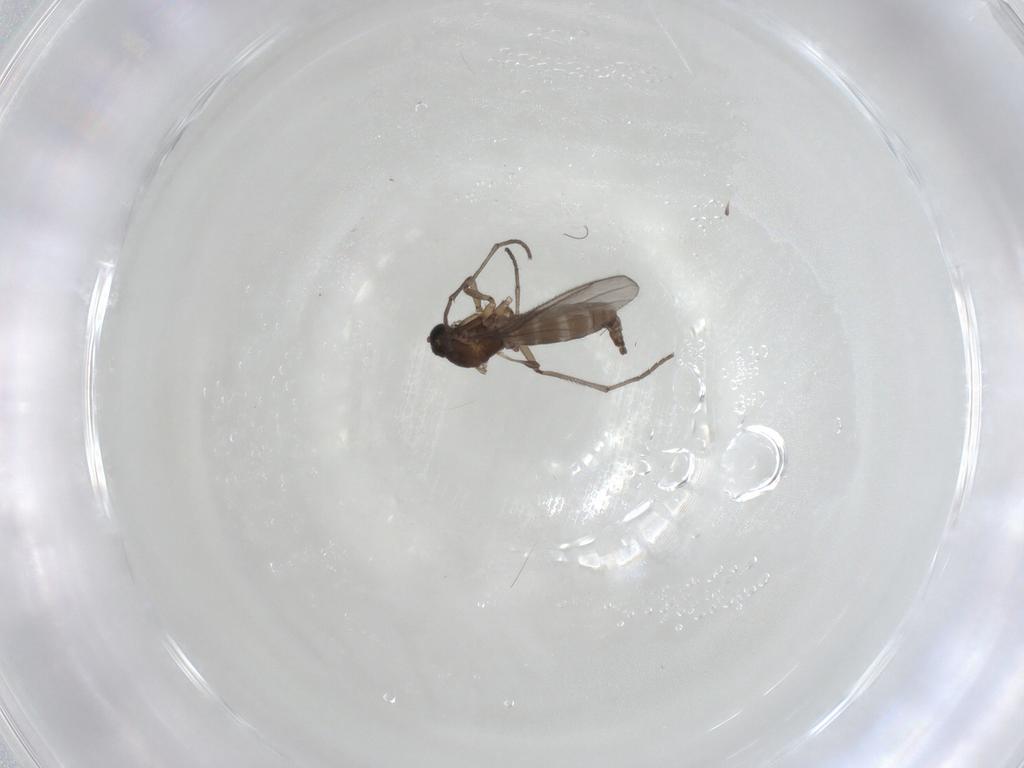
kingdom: Animalia
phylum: Arthropoda
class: Insecta
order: Diptera
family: Sciaridae
